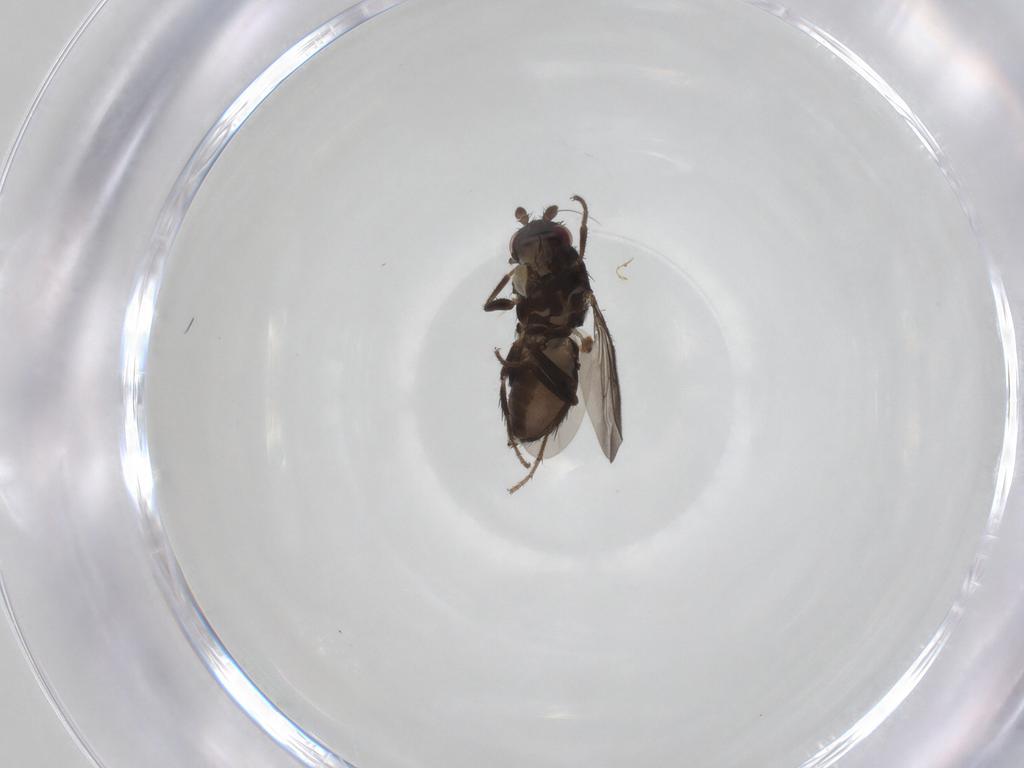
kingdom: Animalia
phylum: Arthropoda
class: Insecta
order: Diptera
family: Sphaeroceridae
